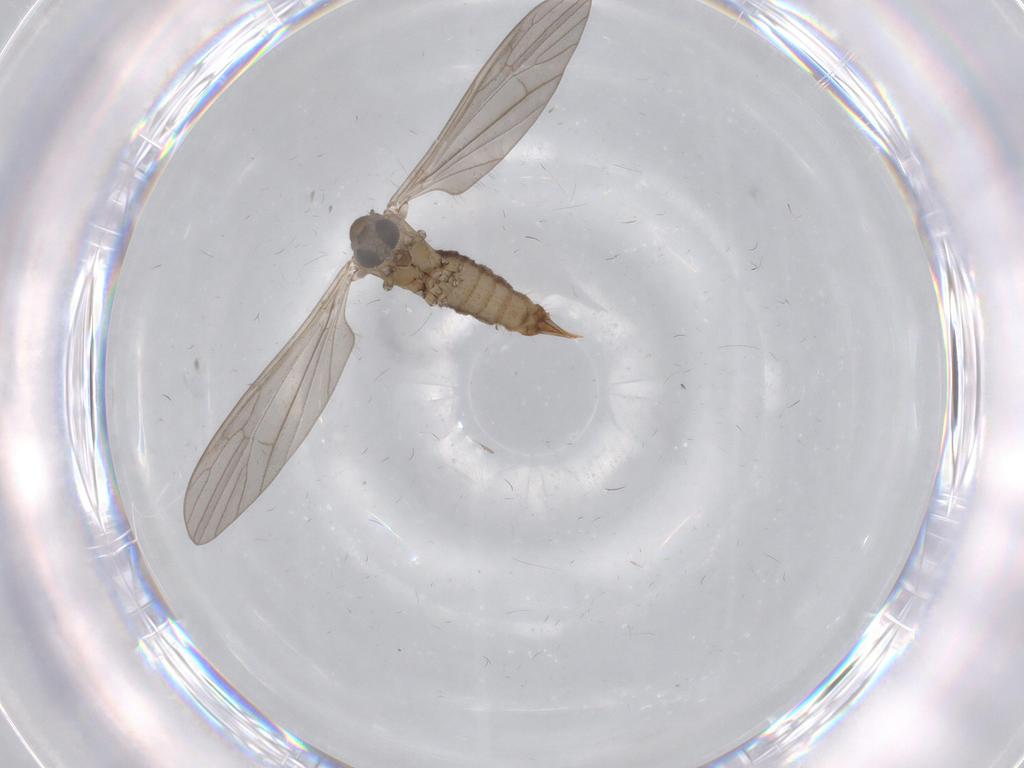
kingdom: Animalia
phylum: Arthropoda
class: Insecta
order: Diptera
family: Limoniidae
